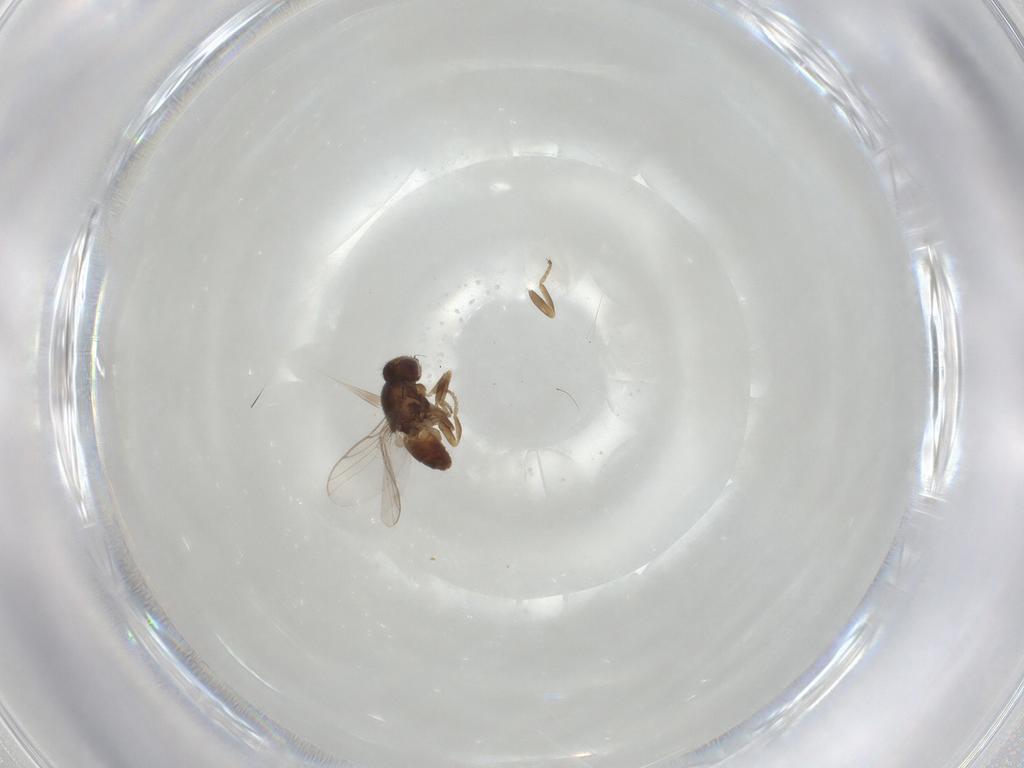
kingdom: Animalia
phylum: Arthropoda
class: Insecta
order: Diptera
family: Chloropidae
